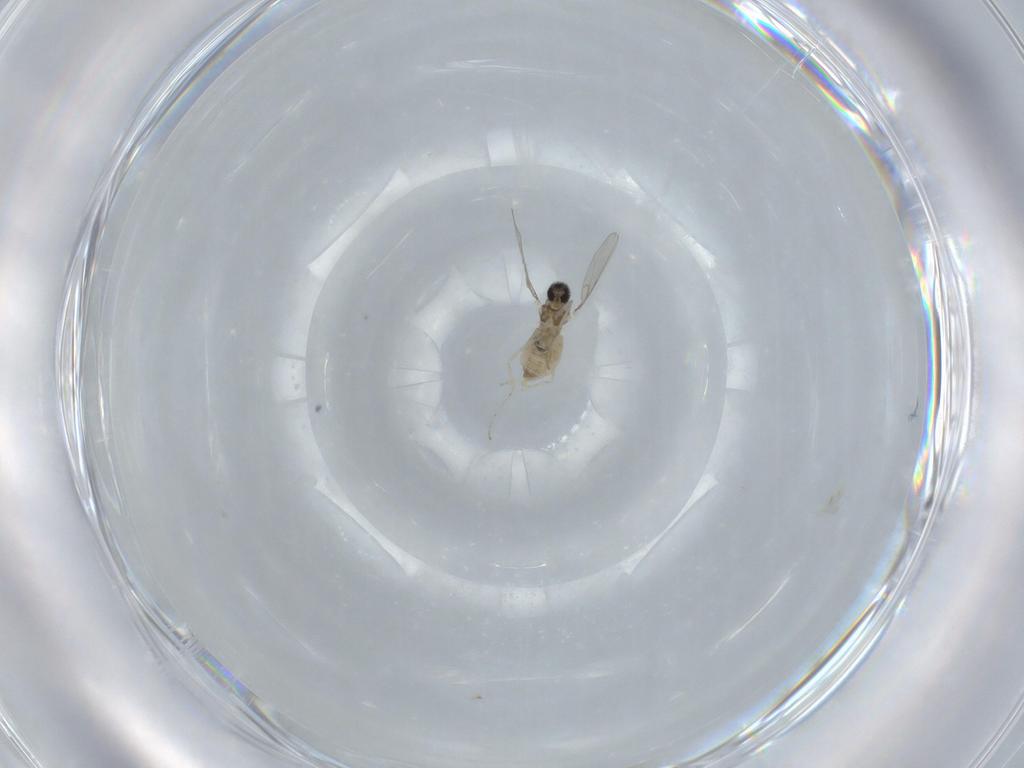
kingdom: Animalia
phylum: Arthropoda
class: Insecta
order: Diptera
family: Cecidomyiidae
